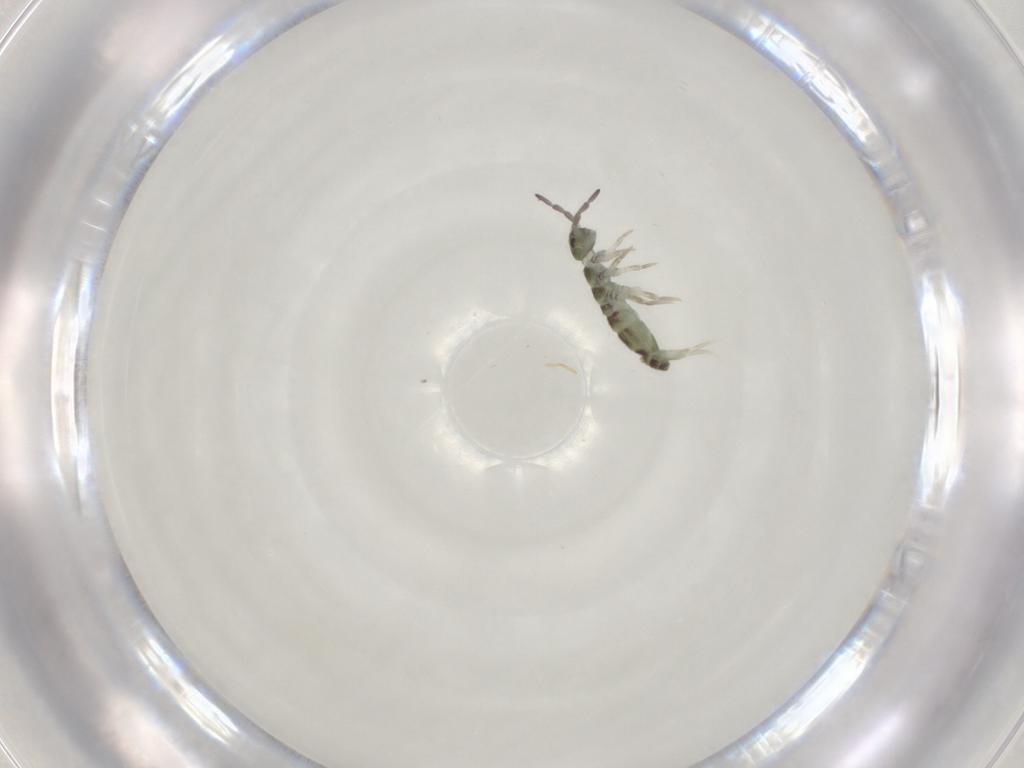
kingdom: Animalia
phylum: Arthropoda
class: Collembola
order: Entomobryomorpha
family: Isotomidae
